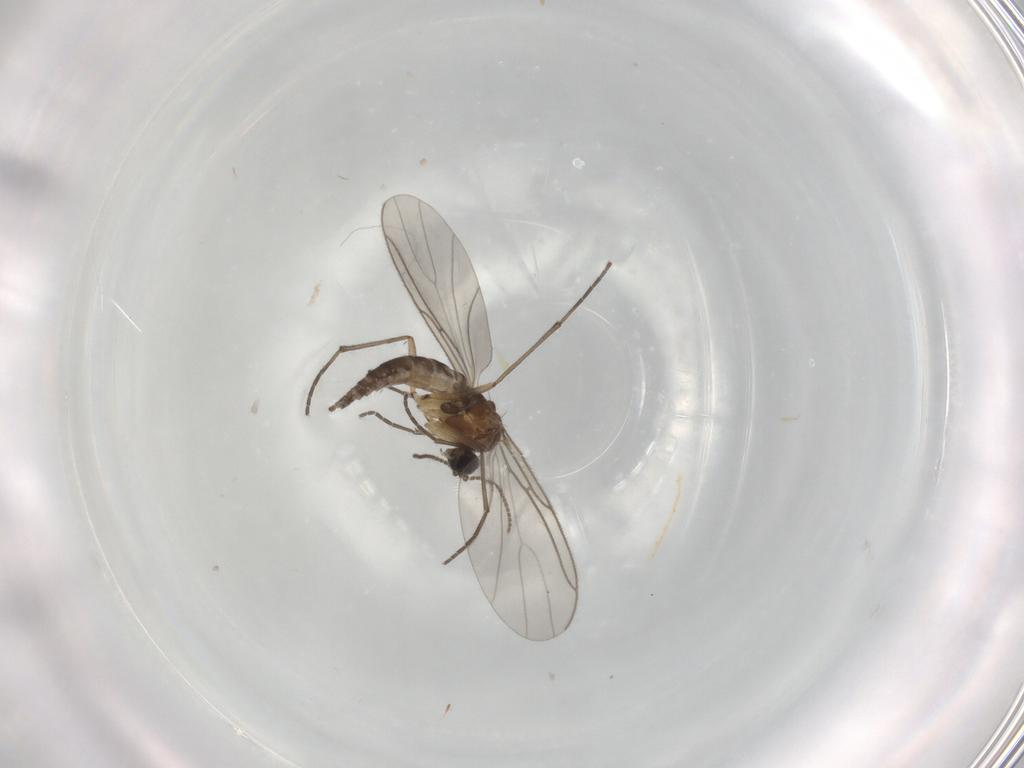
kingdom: Animalia
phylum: Arthropoda
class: Insecta
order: Diptera
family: Sciaridae
